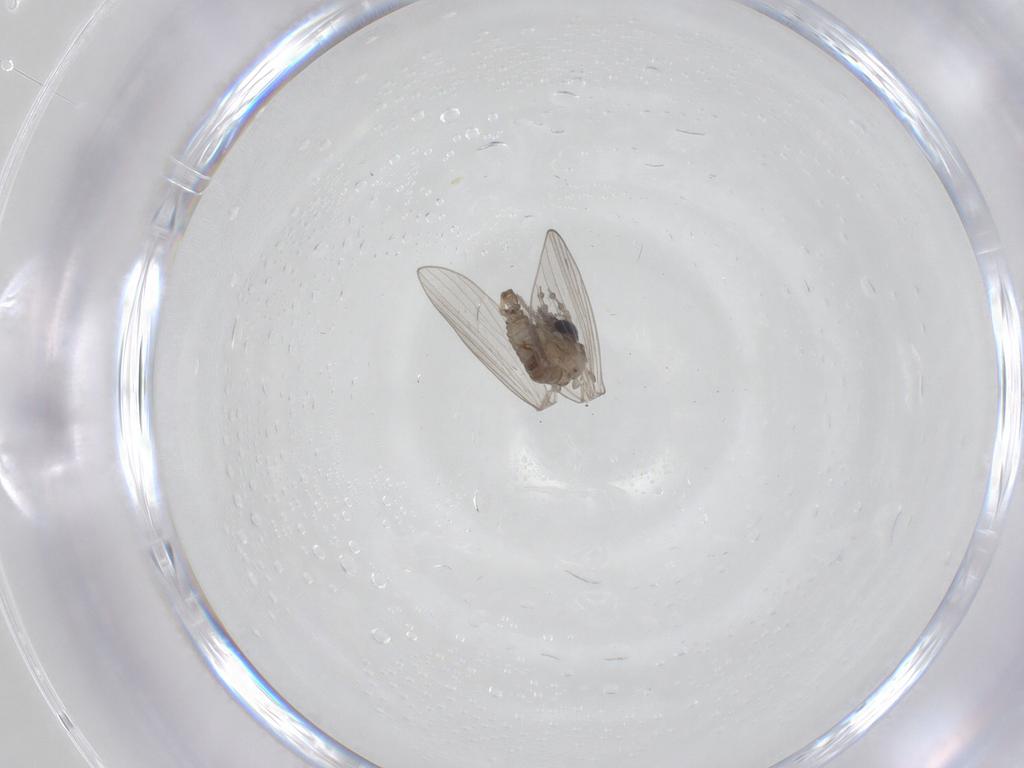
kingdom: Animalia
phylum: Arthropoda
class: Insecta
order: Diptera
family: Psychodidae
